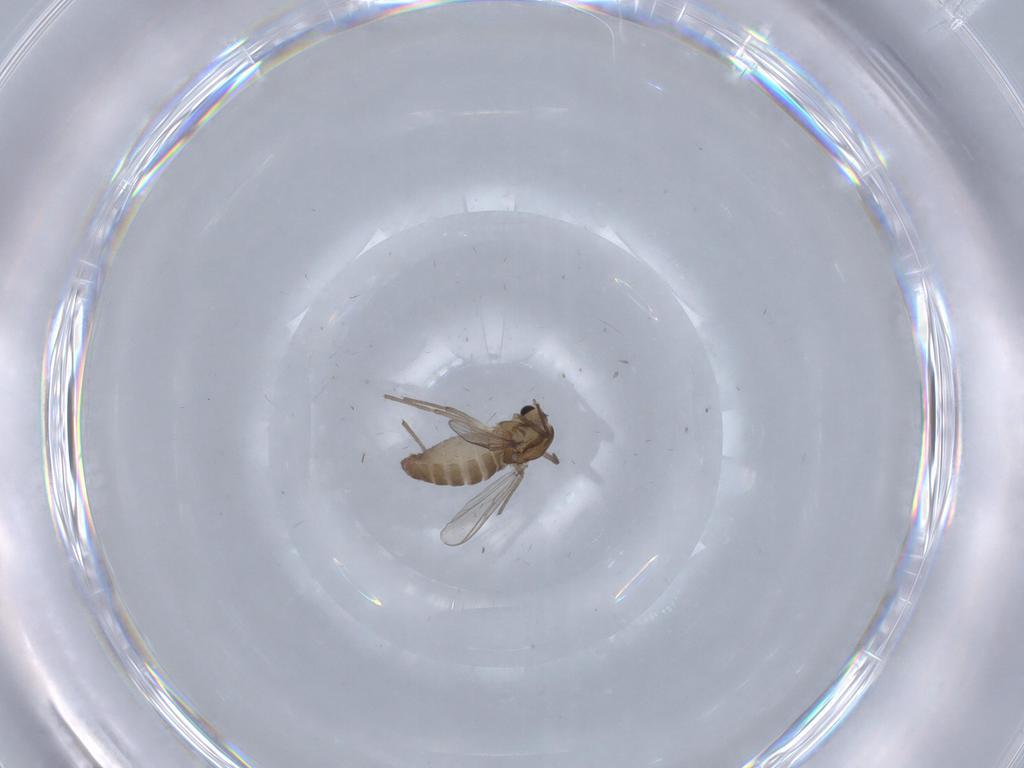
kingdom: Animalia
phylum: Arthropoda
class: Insecta
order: Diptera
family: Chironomidae
